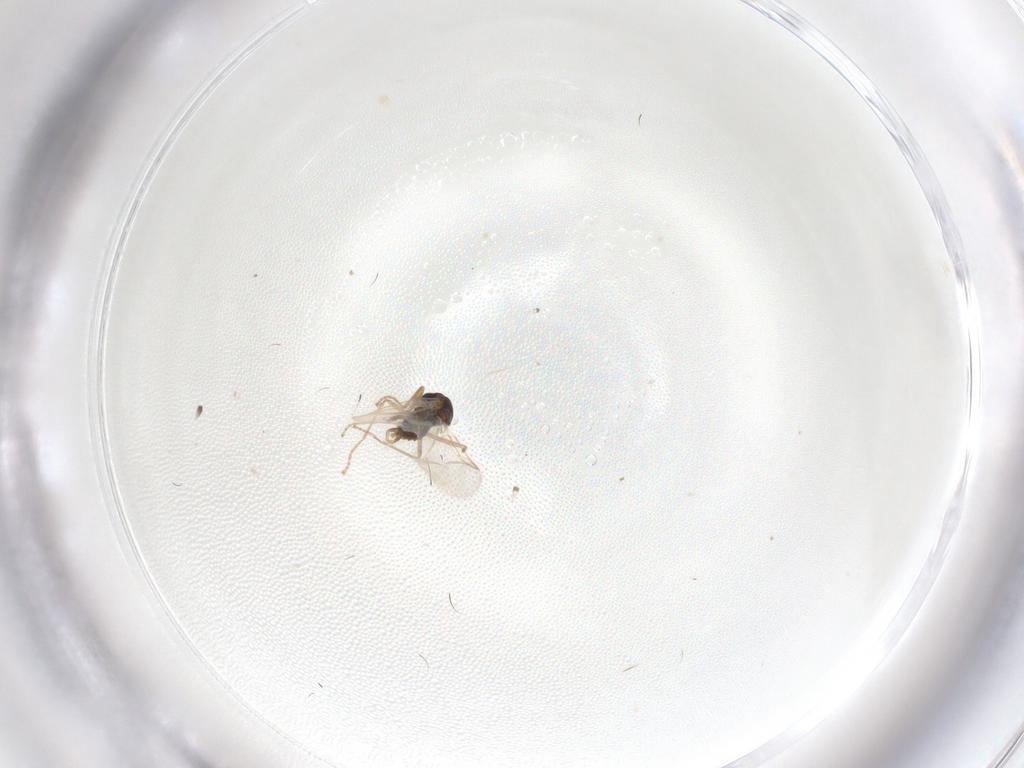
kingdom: Animalia
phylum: Arthropoda
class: Insecta
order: Diptera
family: Cecidomyiidae
